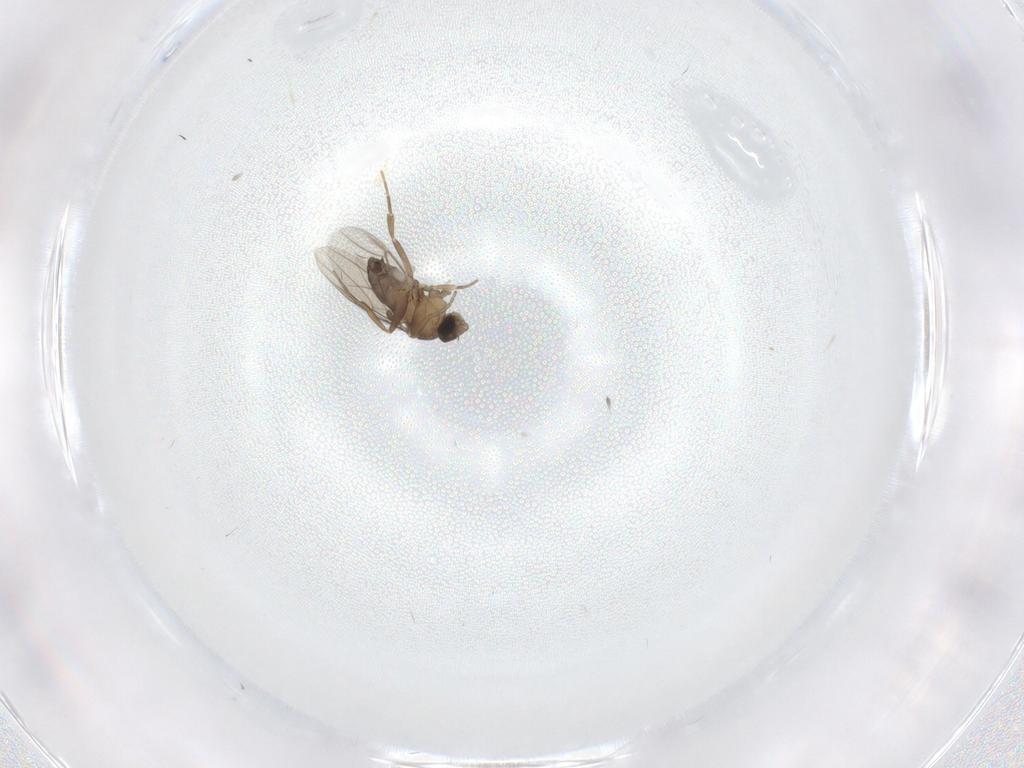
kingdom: Animalia
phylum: Arthropoda
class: Insecta
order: Diptera
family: Phoridae
